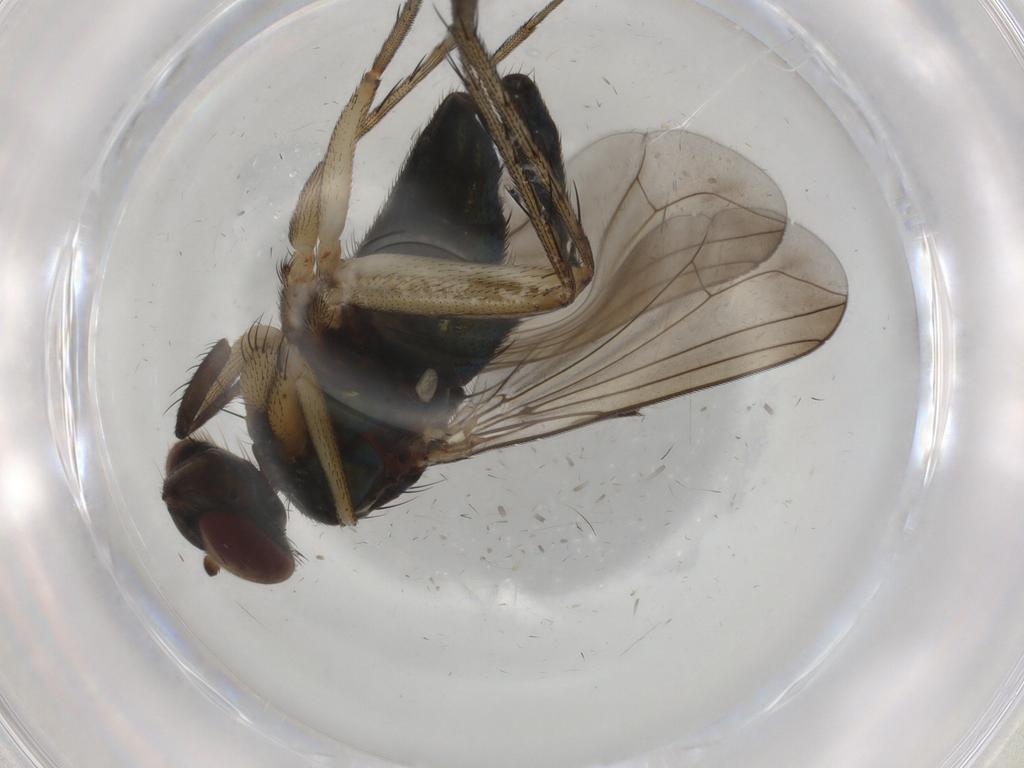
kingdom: Animalia
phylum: Arthropoda
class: Insecta
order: Diptera
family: Dolichopodidae
